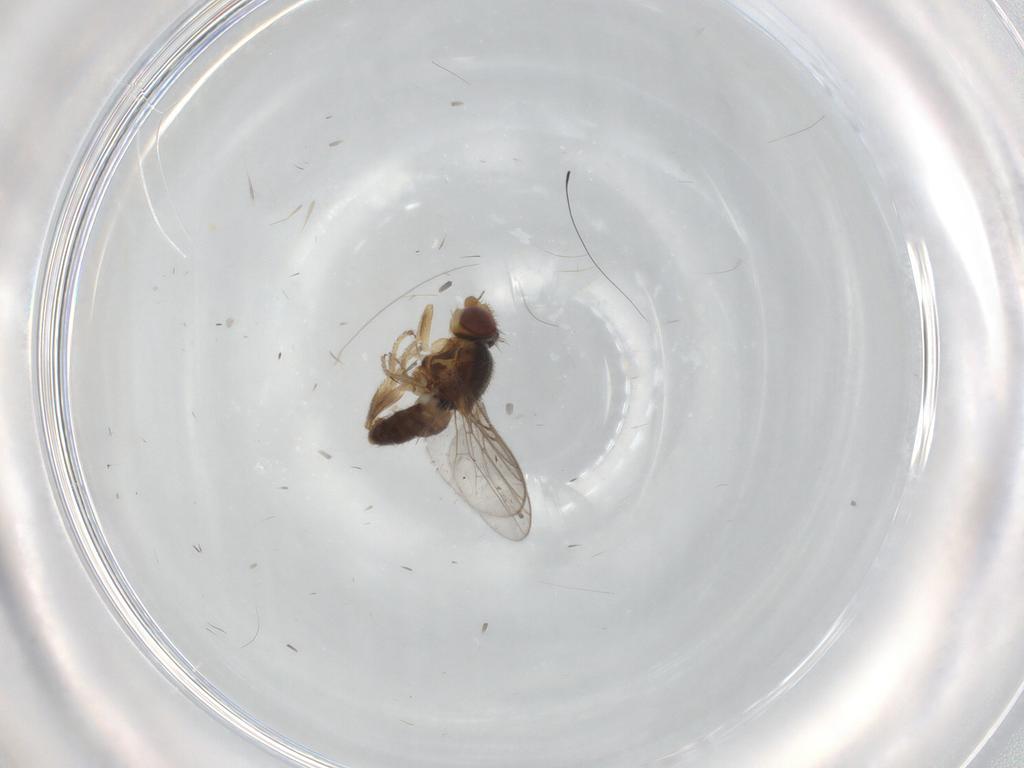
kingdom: Animalia
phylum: Arthropoda
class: Insecta
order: Diptera
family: Chloropidae
